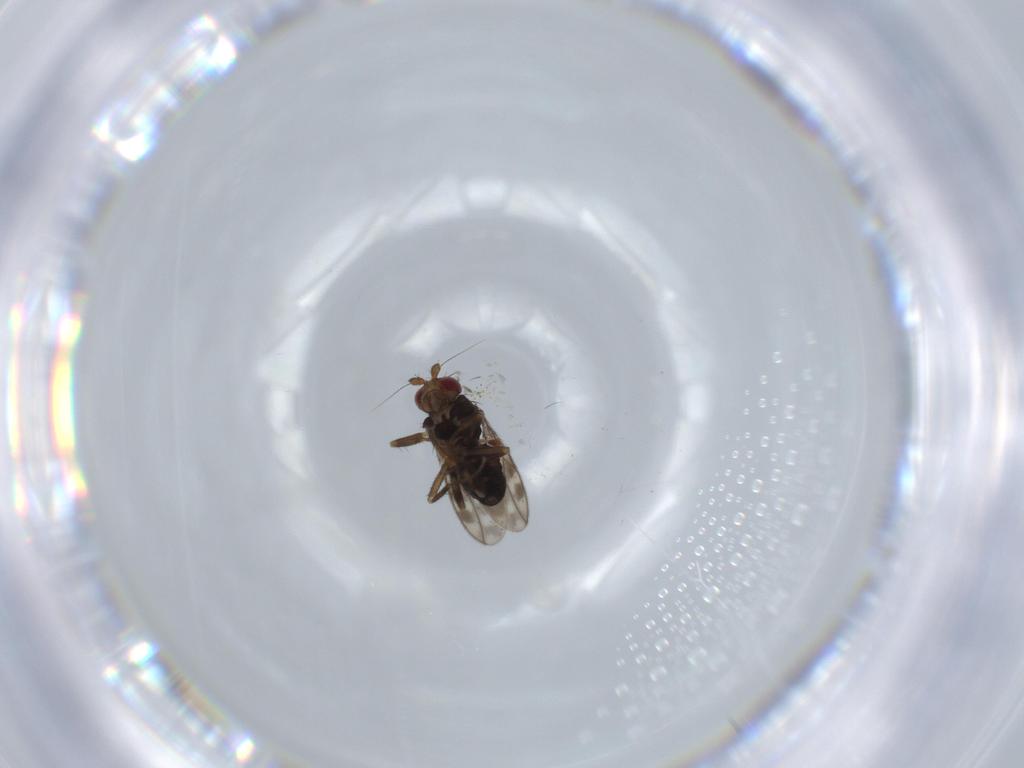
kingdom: Animalia
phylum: Arthropoda
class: Insecta
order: Diptera
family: Sphaeroceridae
